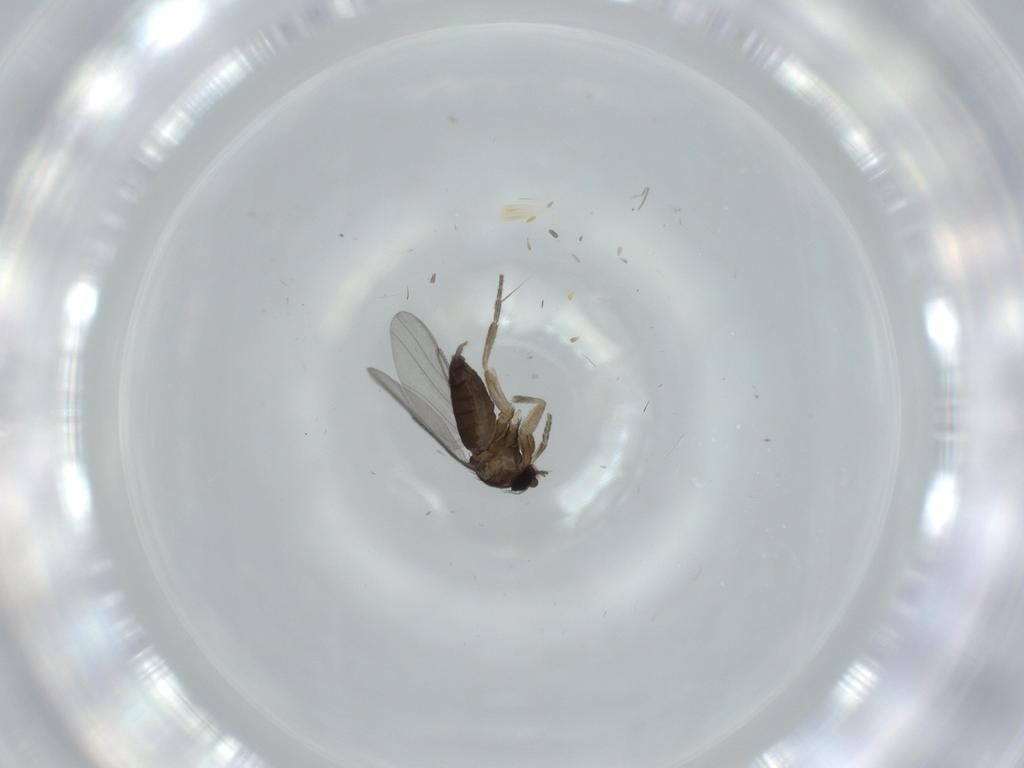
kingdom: Animalia
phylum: Arthropoda
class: Insecta
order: Diptera
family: Phoridae
